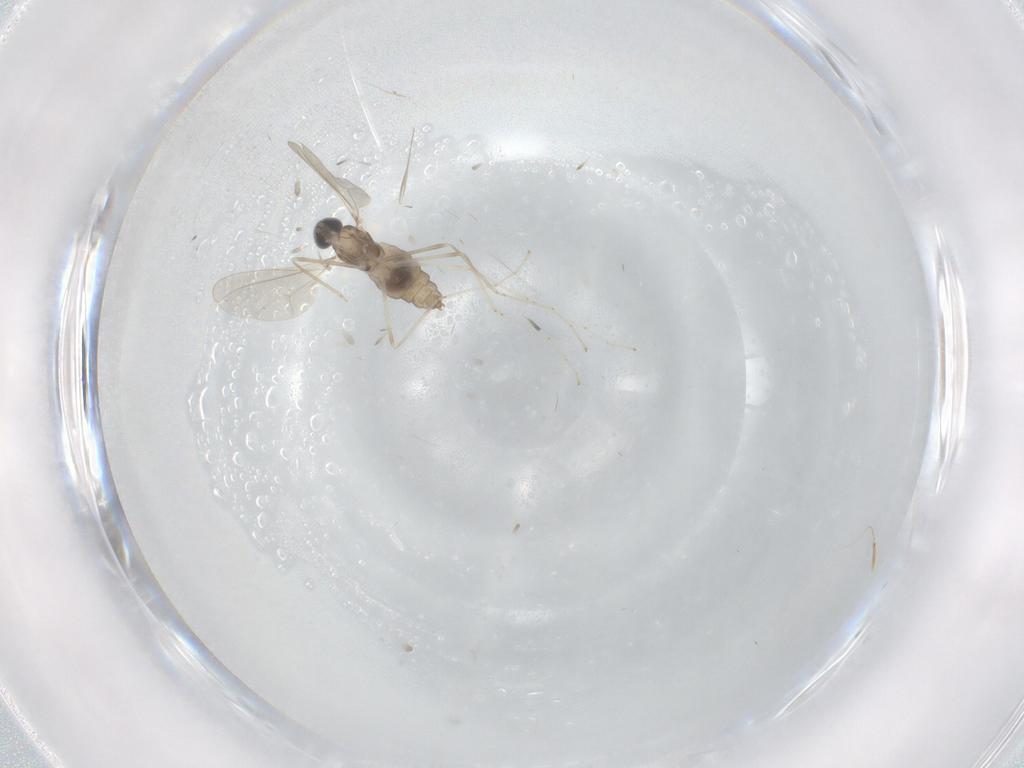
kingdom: Animalia
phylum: Arthropoda
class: Insecta
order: Diptera
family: Cecidomyiidae
